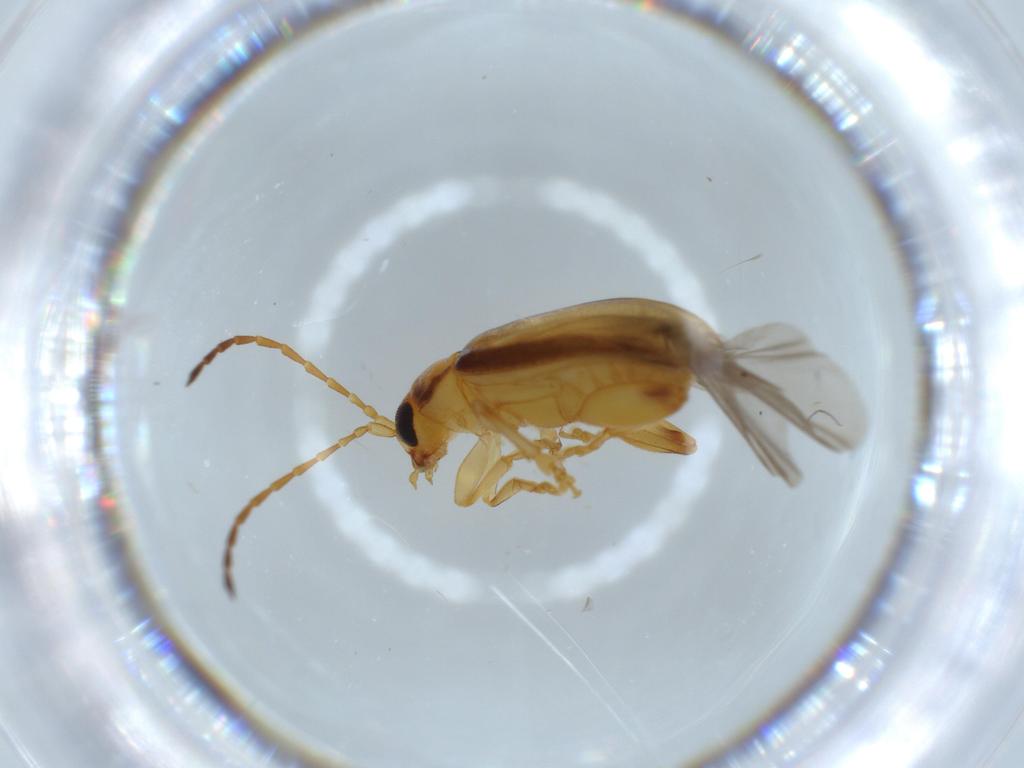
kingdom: Animalia
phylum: Arthropoda
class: Insecta
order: Coleoptera
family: Chrysomelidae
